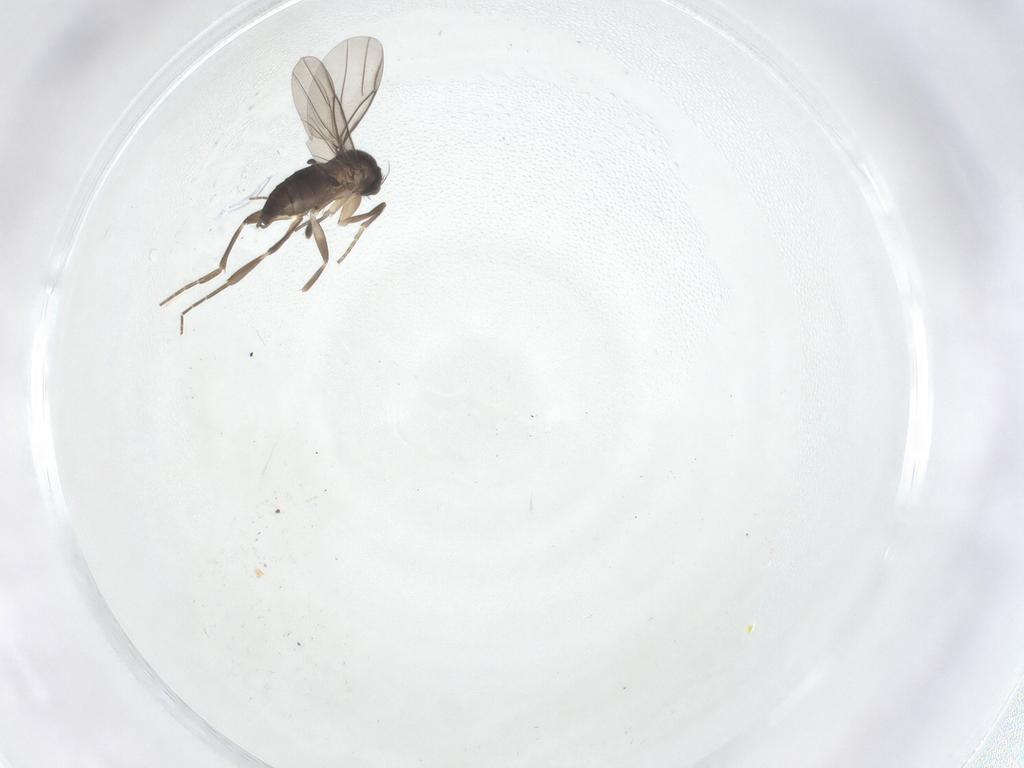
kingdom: Animalia
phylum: Arthropoda
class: Insecta
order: Diptera
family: Phoridae
